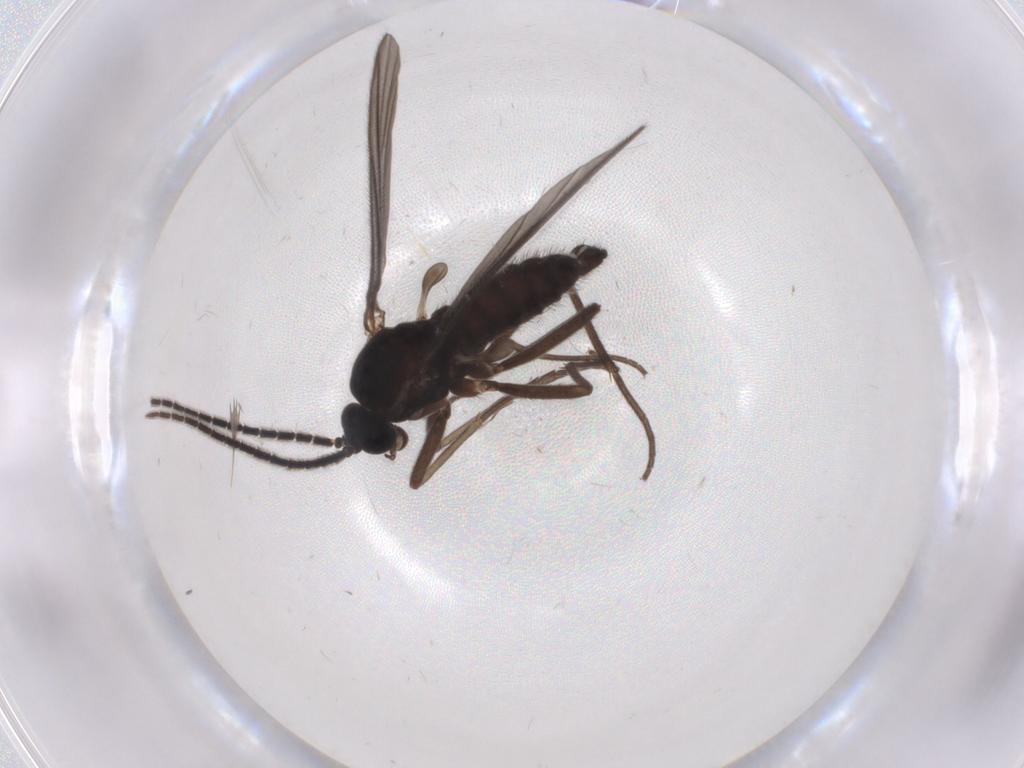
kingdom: Animalia
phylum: Arthropoda
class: Insecta
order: Diptera
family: Sciaridae
